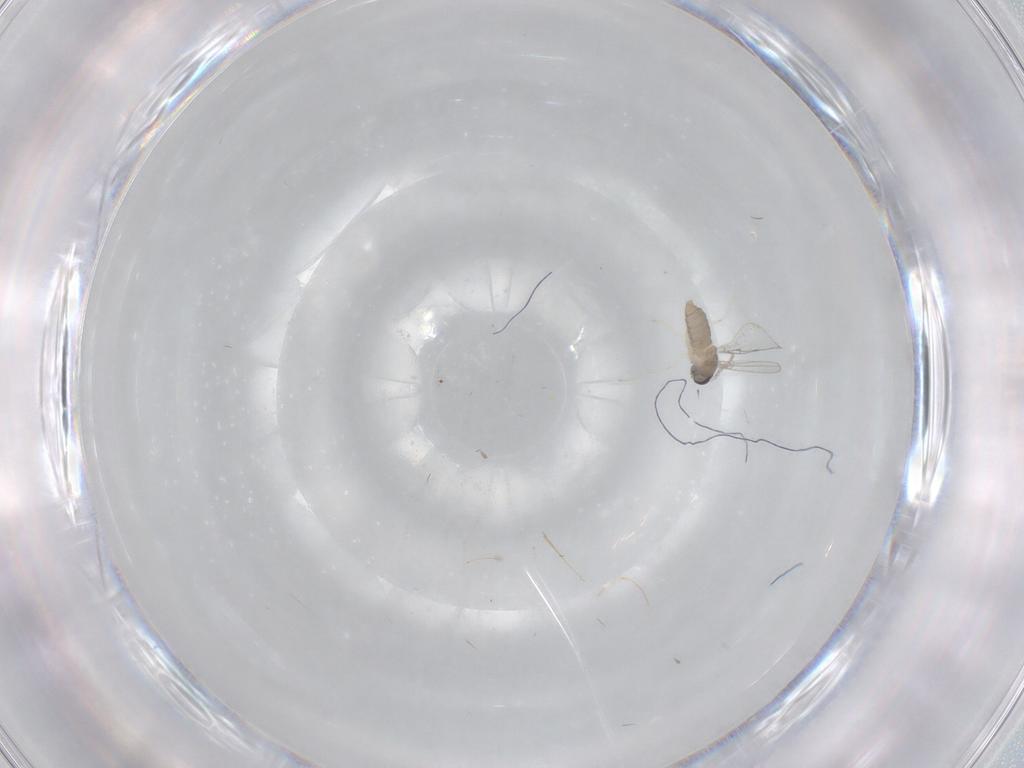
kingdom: Animalia
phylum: Arthropoda
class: Insecta
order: Diptera
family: Cecidomyiidae
